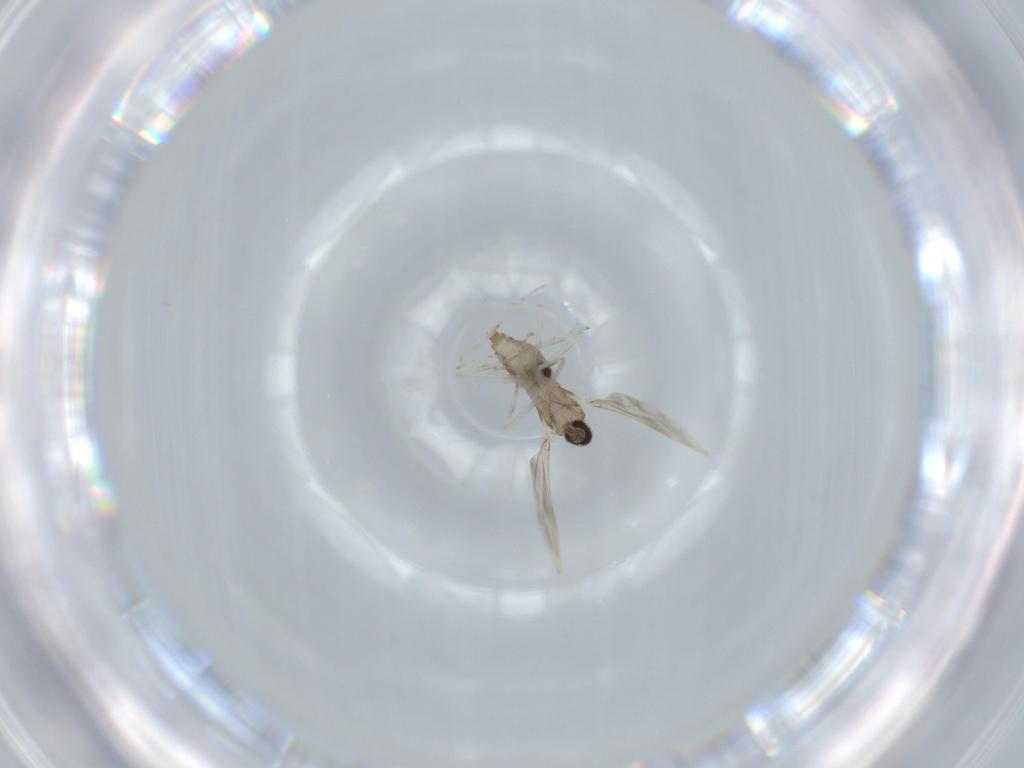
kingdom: Animalia
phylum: Arthropoda
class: Insecta
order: Diptera
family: Cecidomyiidae
